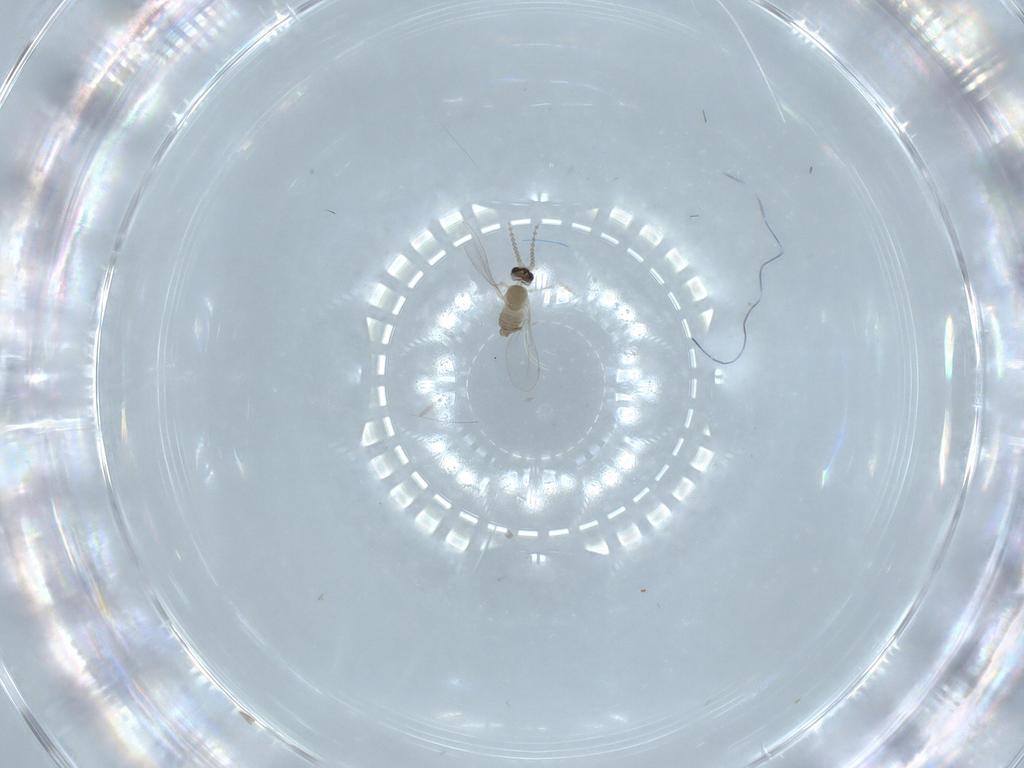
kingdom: Animalia
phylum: Arthropoda
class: Insecta
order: Diptera
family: Cecidomyiidae
